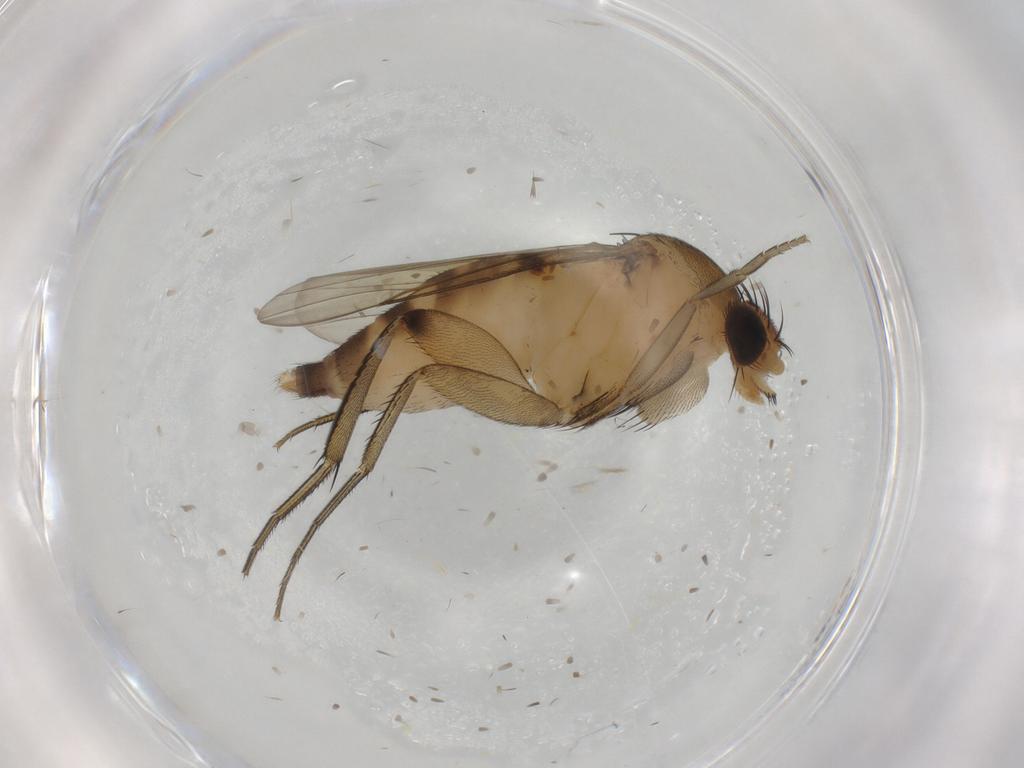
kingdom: Animalia
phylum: Arthropoda
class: Insecta
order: Diptera
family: Phoridae
